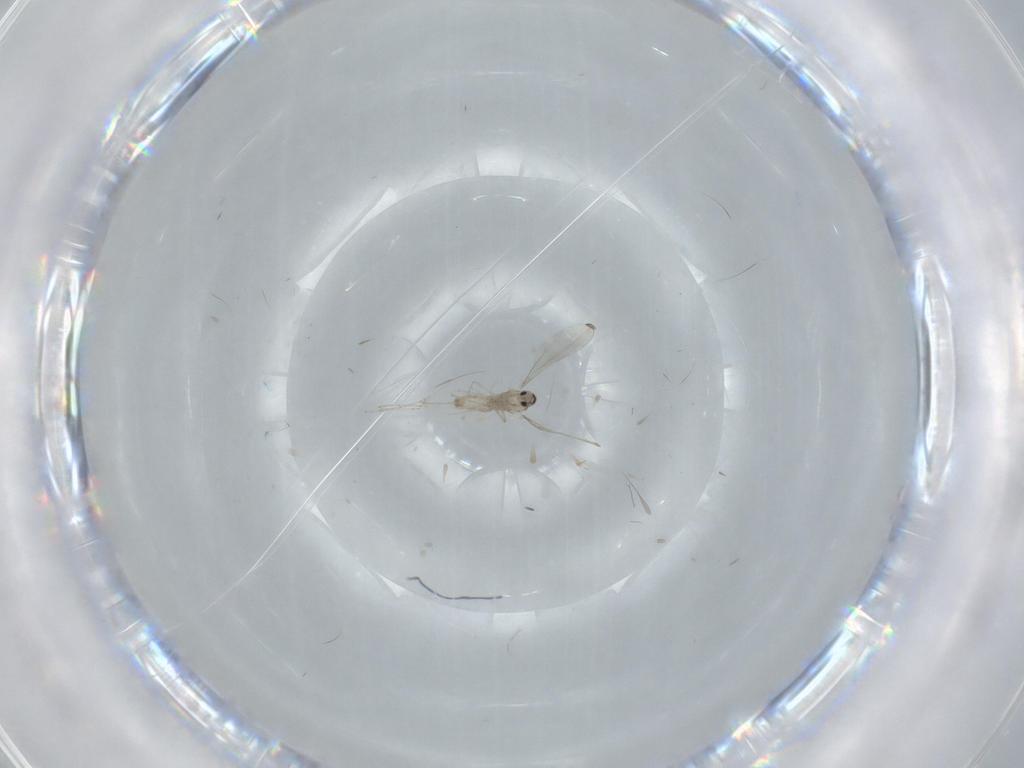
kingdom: Animalia
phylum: Arthropoda
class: Insecta
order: Diptera
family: Cecidomyiidae
